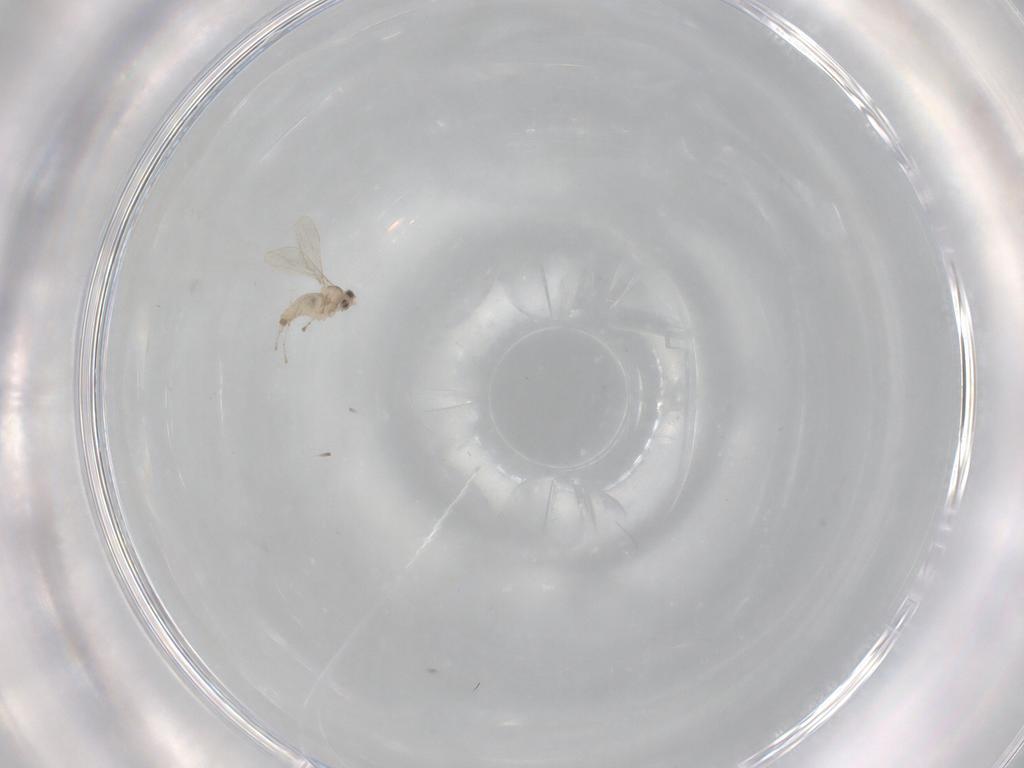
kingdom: Animalia
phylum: Arthropoda
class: Insecta
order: Diptera
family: Cecidomyiidae
